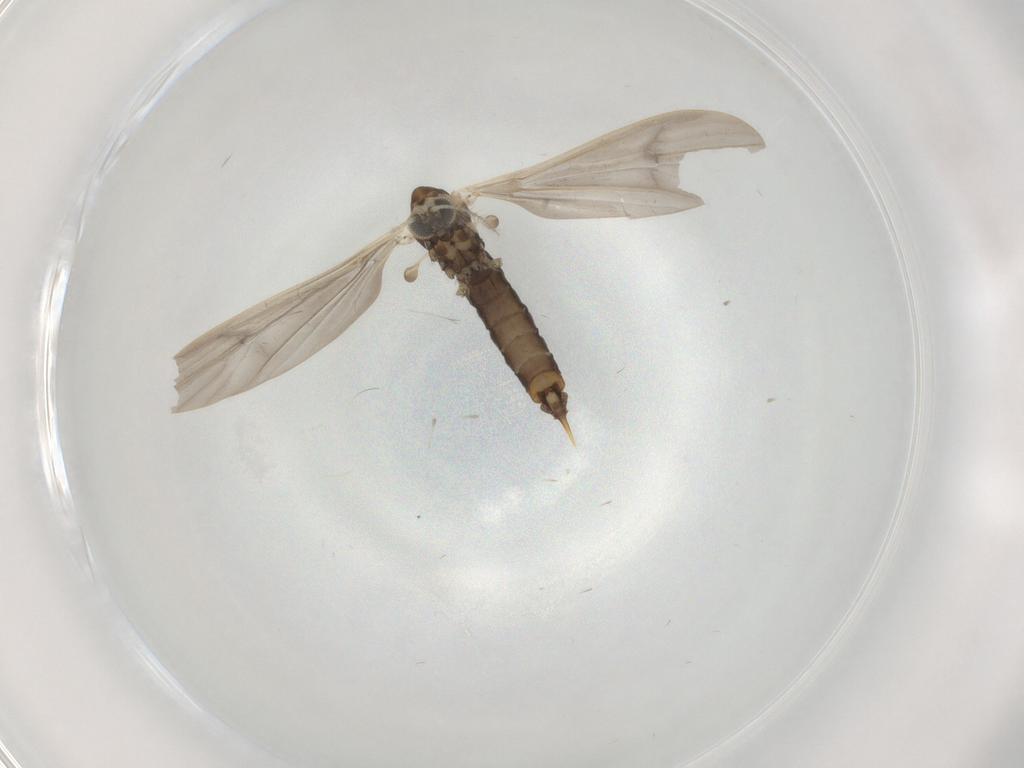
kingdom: Animalia
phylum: Arthropoda
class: Insecta
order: Diptera
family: Limoniidae
